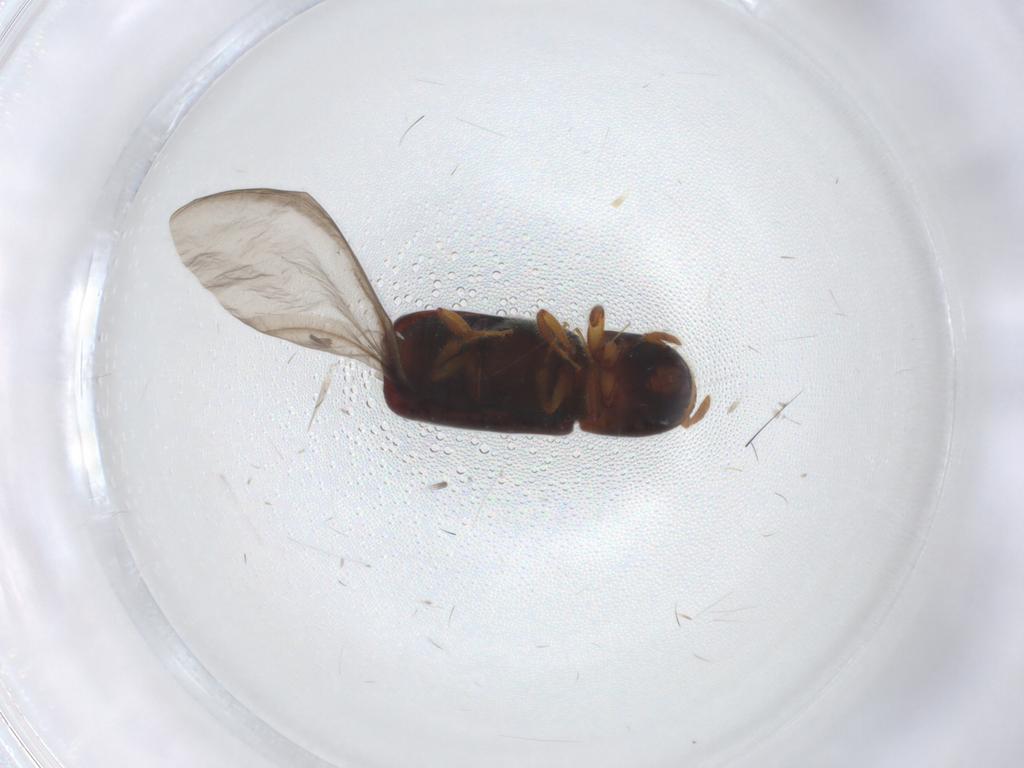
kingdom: Animalia
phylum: Arthropoda
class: Insecta
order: Coleoptera
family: Curculionidae
